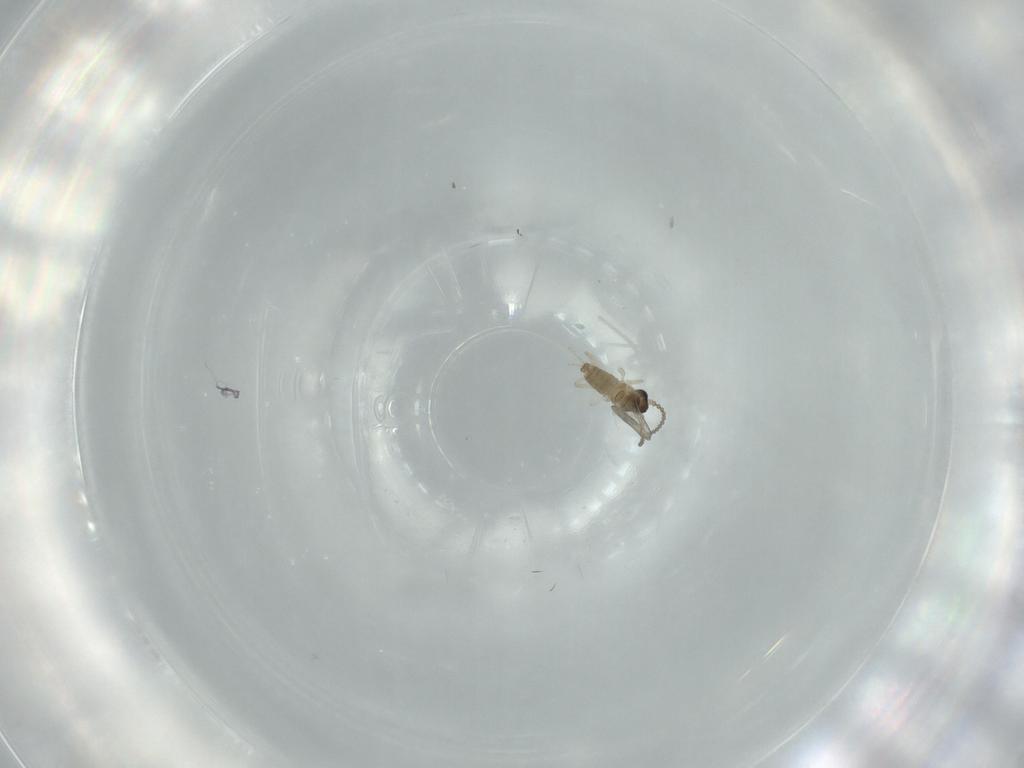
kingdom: Animalia
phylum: Arthropoda
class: Insecta
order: Diptera
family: Cecidomyiidae
